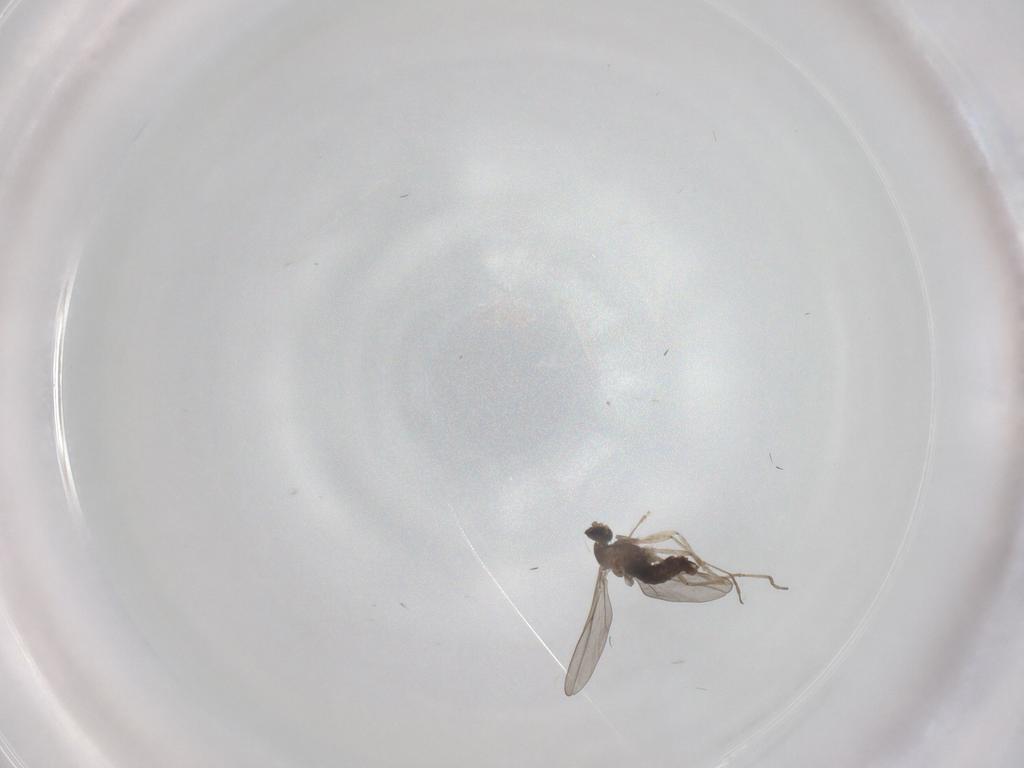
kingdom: Animalia
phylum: Arthropoda
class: Insecta
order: Diptera
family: Cecidomyiidae
